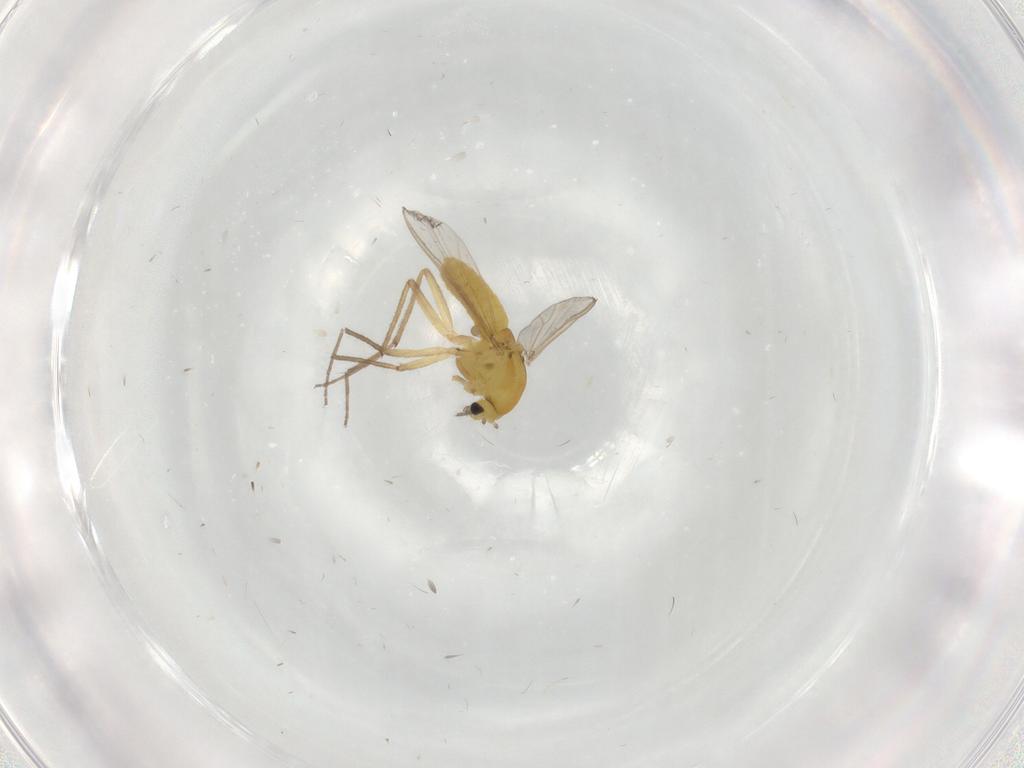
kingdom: Animalia
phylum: Arthropoda
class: Insecta
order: Diptera
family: Chironomidae
